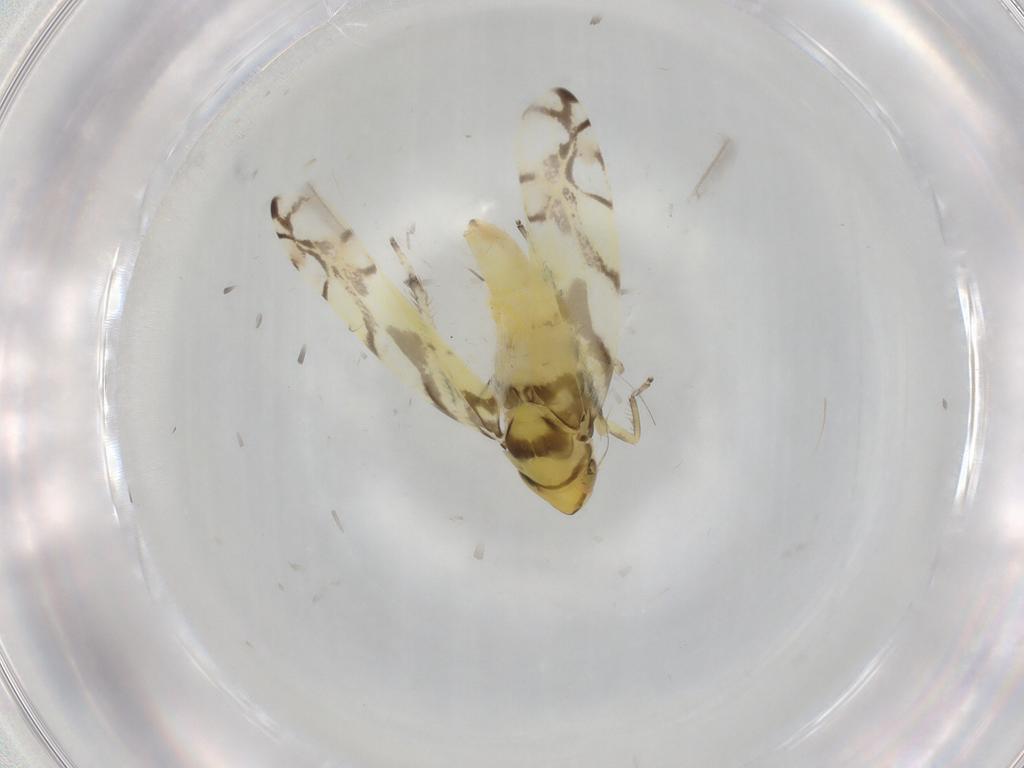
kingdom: Animalia
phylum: Arthropoda
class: Insecta
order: Hemiptera
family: Cicadellidae
